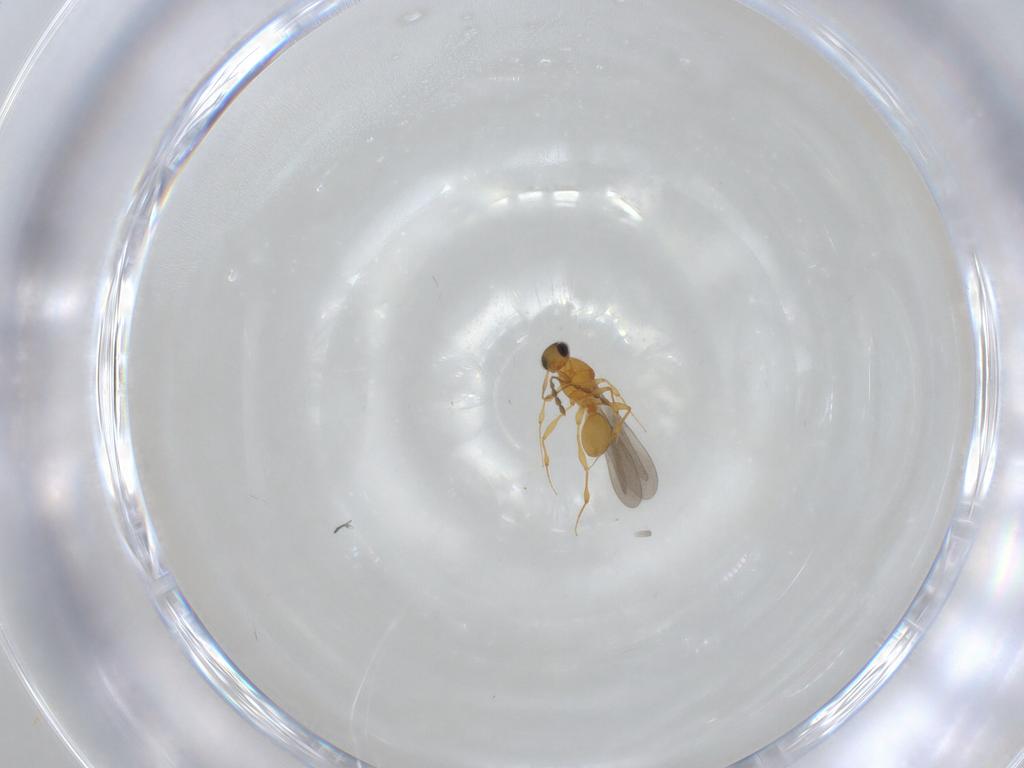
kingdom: Animalia
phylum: Arthropoda
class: Insecta
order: Hymenoptera
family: Platygastridae
